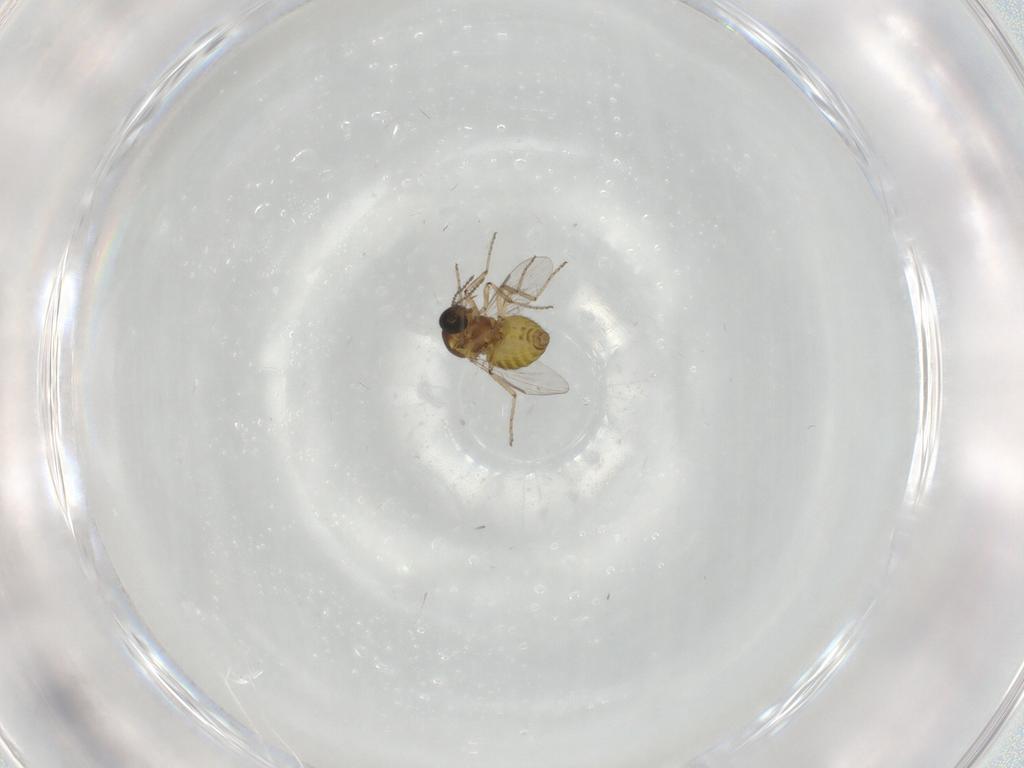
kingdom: Animalia
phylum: Arthropoda
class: Insecta
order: Diptera
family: Ceratopogonidae
